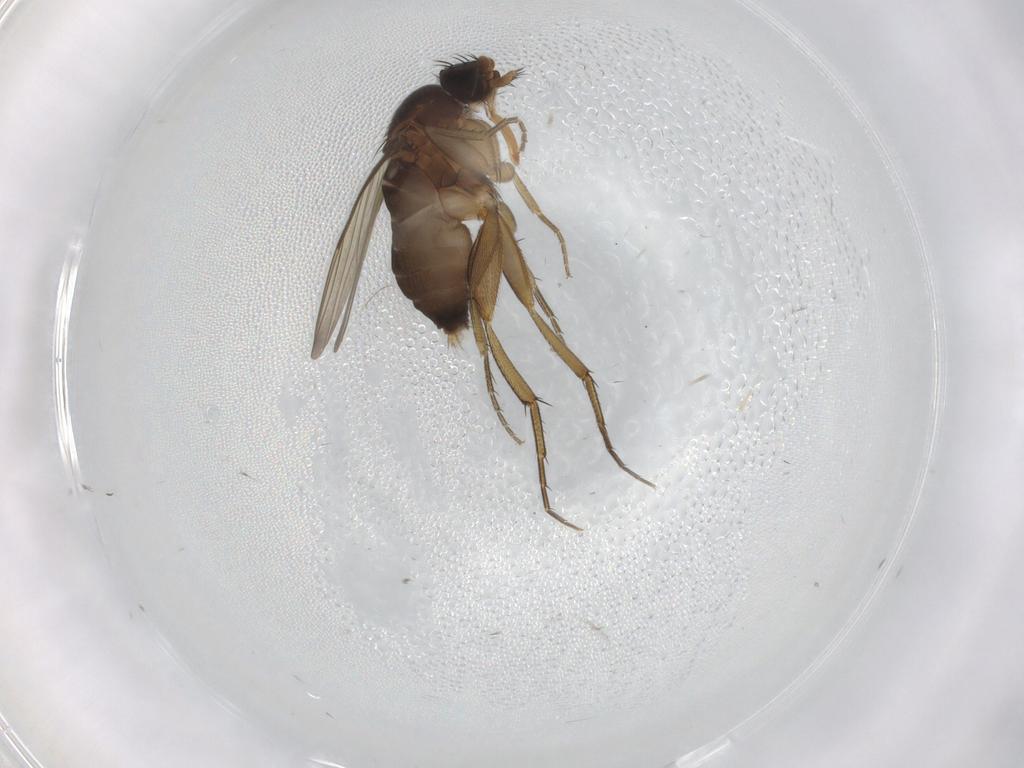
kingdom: Animalia
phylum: Arthropoda
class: Insecta
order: Diptera
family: Phoridae
